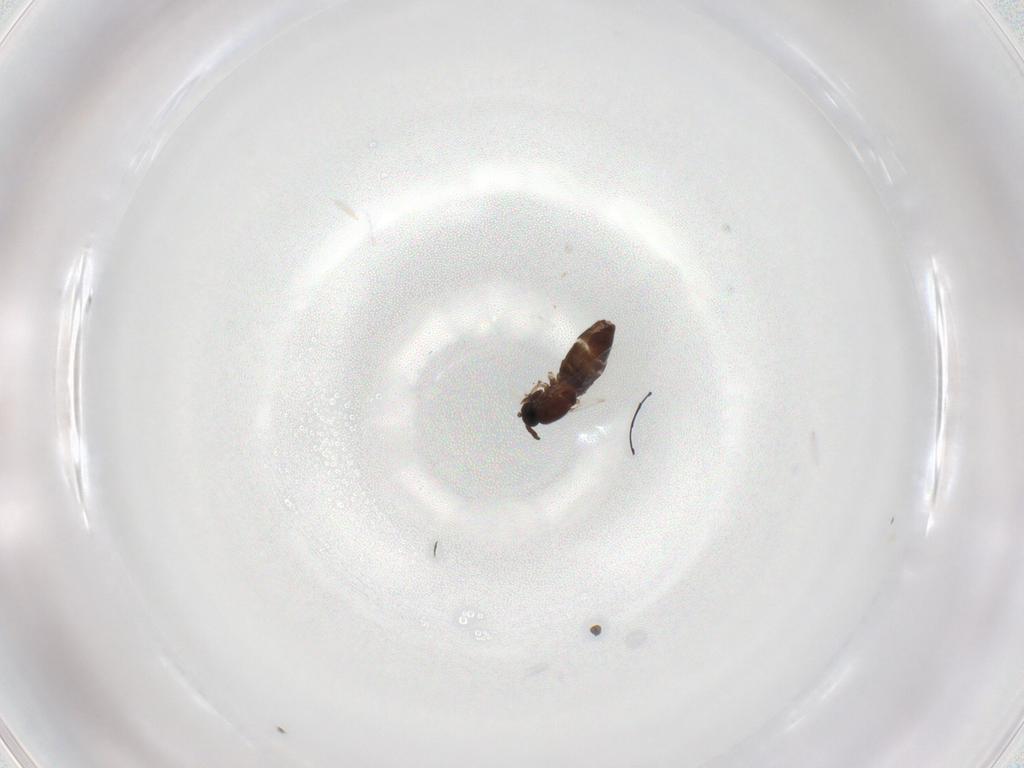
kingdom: Animalia
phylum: Arthropoda
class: Insecta
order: Diptera
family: Scatopsidae
